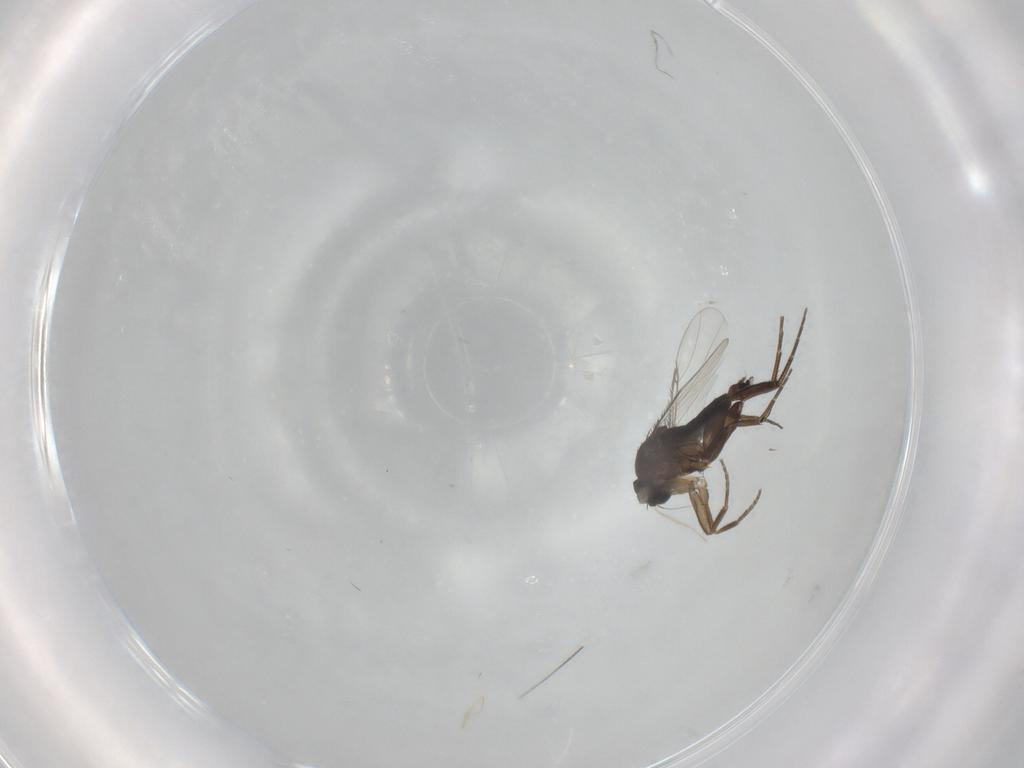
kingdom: Animalia
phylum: Arthropoda
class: Insecta
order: Diptera
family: Phoridae
